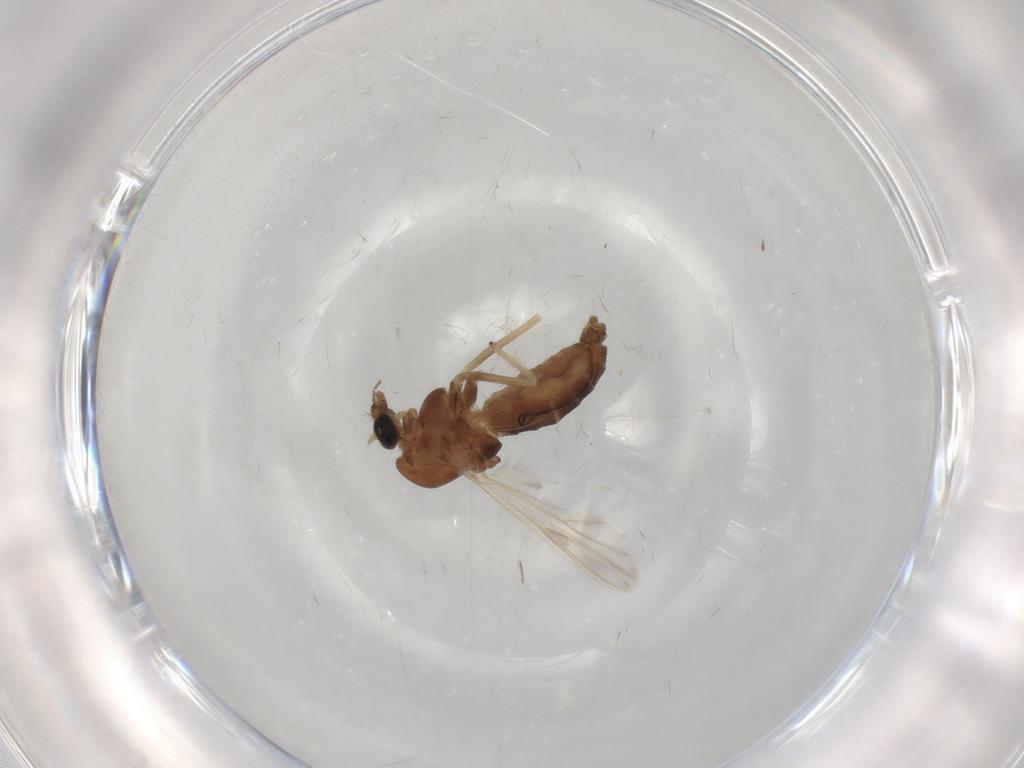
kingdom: Animalia
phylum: Arthropoda
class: Insecta
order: Diptera
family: Chironomidae
